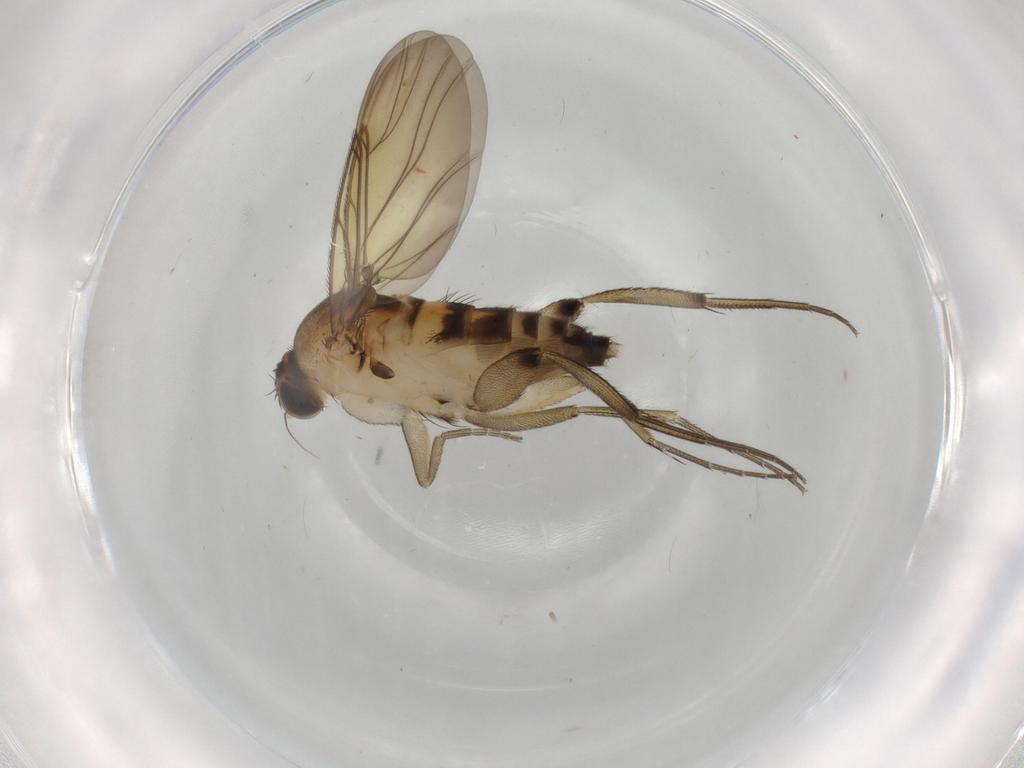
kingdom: Animalia
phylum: Arthropoda
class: Insecta
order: Diptera
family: Phoridae
